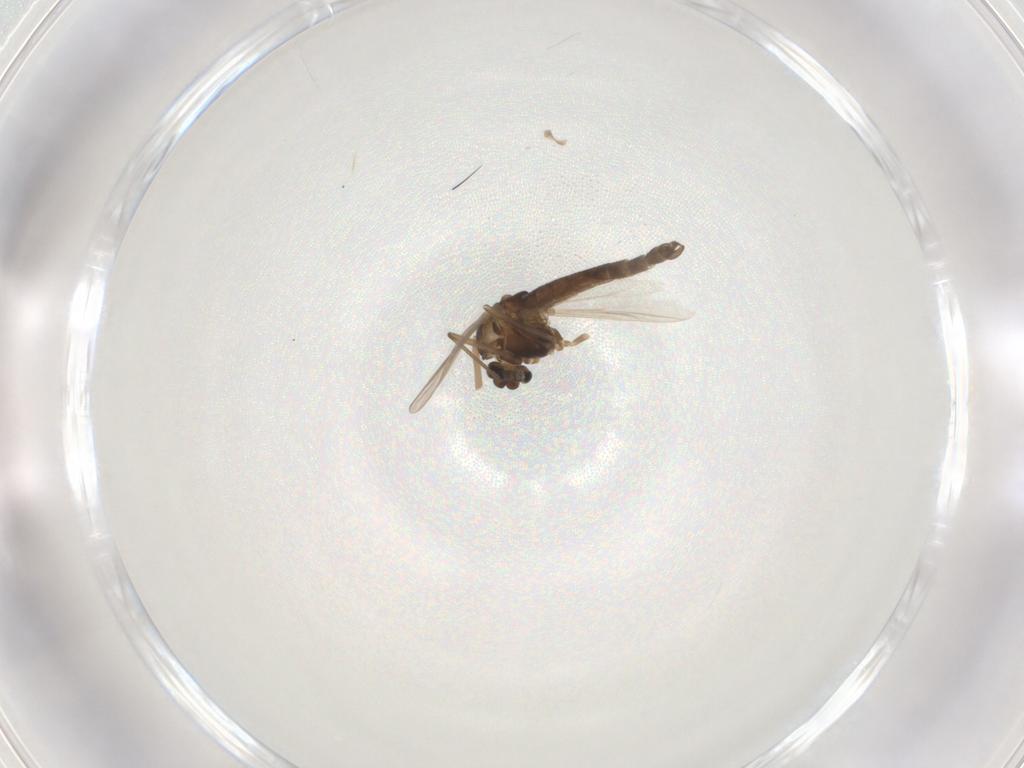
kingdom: Animalia
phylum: Arthropoda
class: Insecta
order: Diptera
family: Chironomidae
